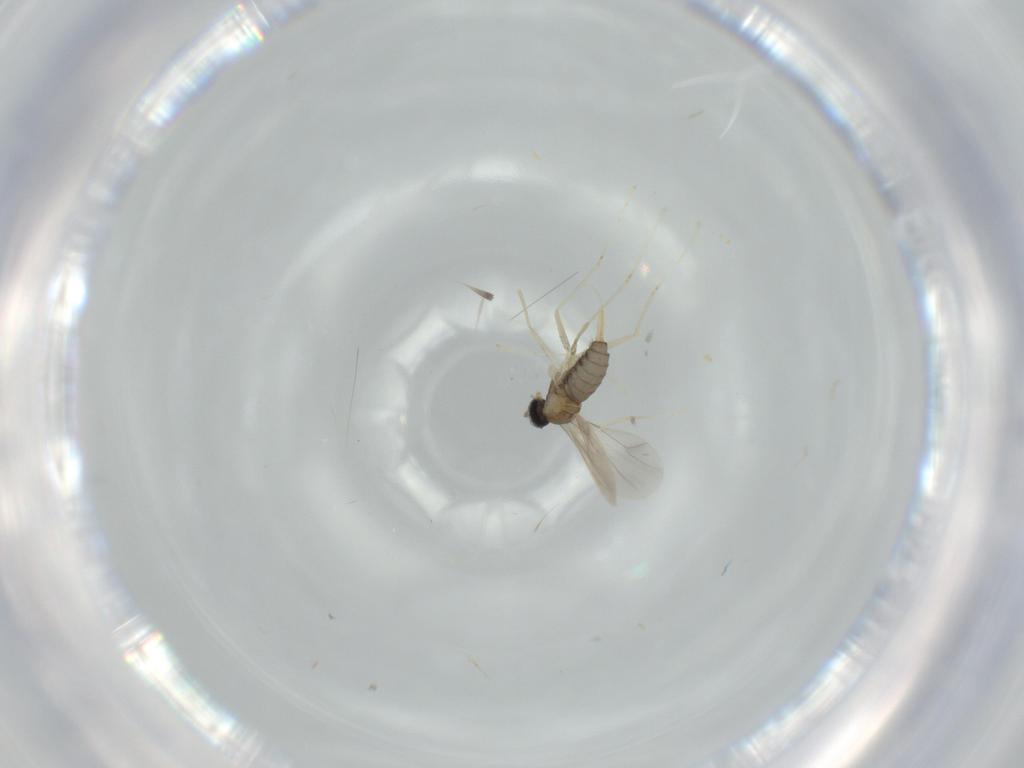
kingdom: Animalia
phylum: Arthropoda
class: Insecta
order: Diptera
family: Cecidomyiidae
